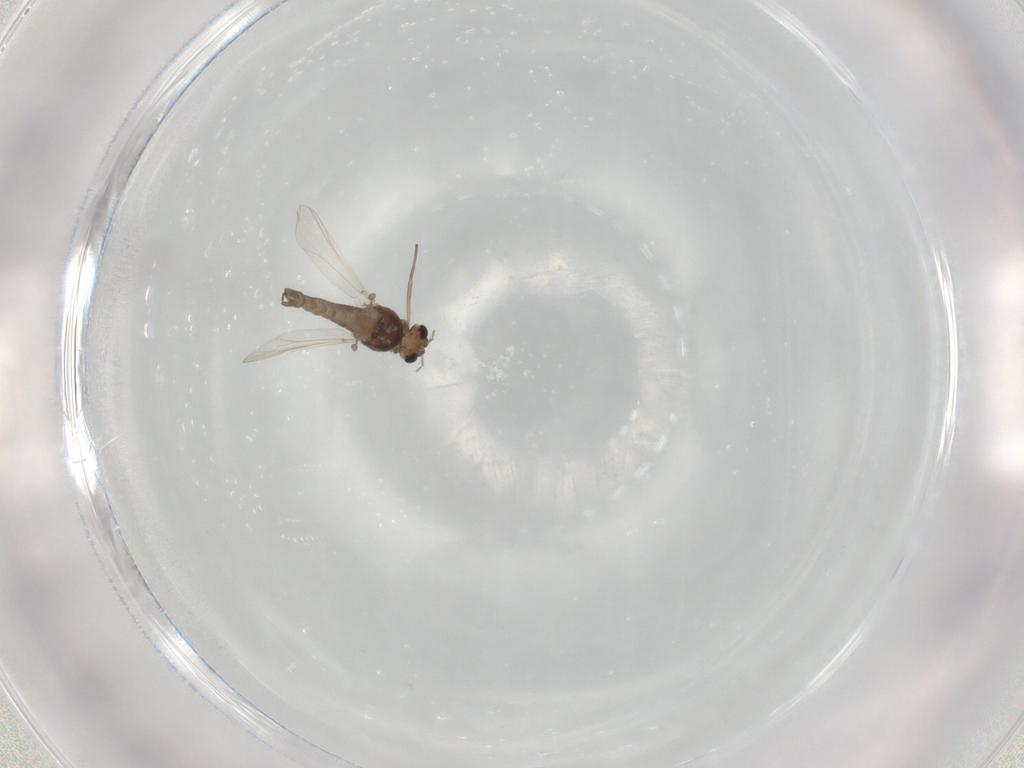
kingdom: Animalia
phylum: Arthropoda
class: Insecta
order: Diptera
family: Chironomidae
